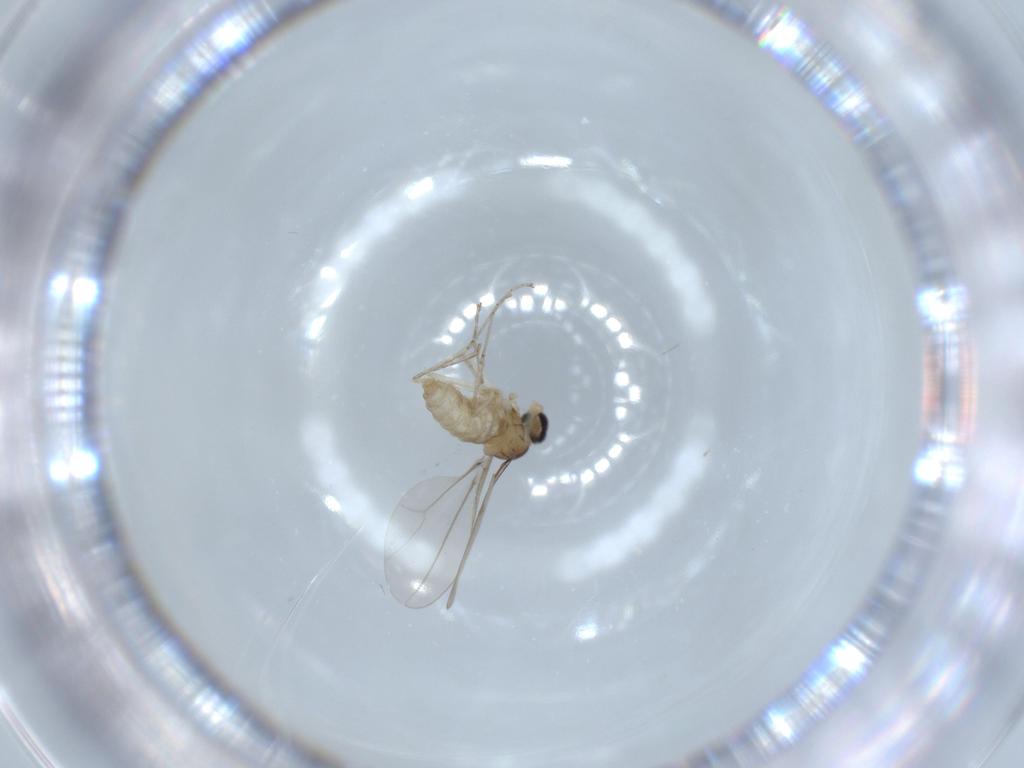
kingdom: Animalia
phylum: Arthropoda
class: Insecta
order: Diptera
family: Cecidomyiidae
